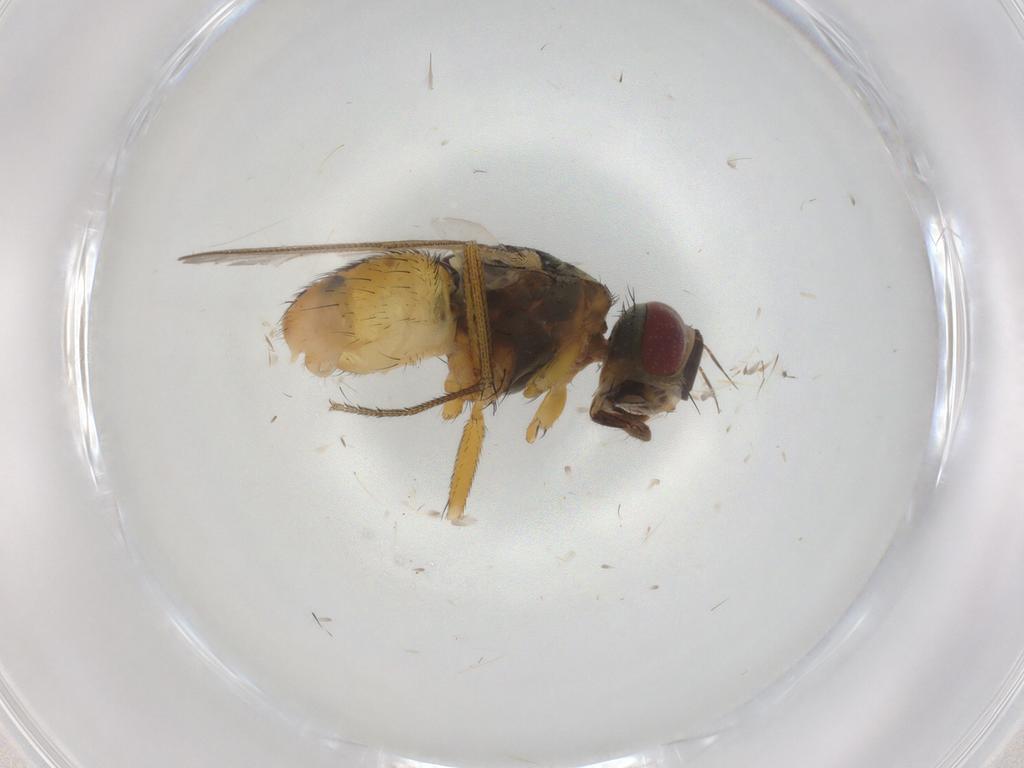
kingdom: Animalia
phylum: Arthropoda
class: Insecta
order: Diptera
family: Muscidae
